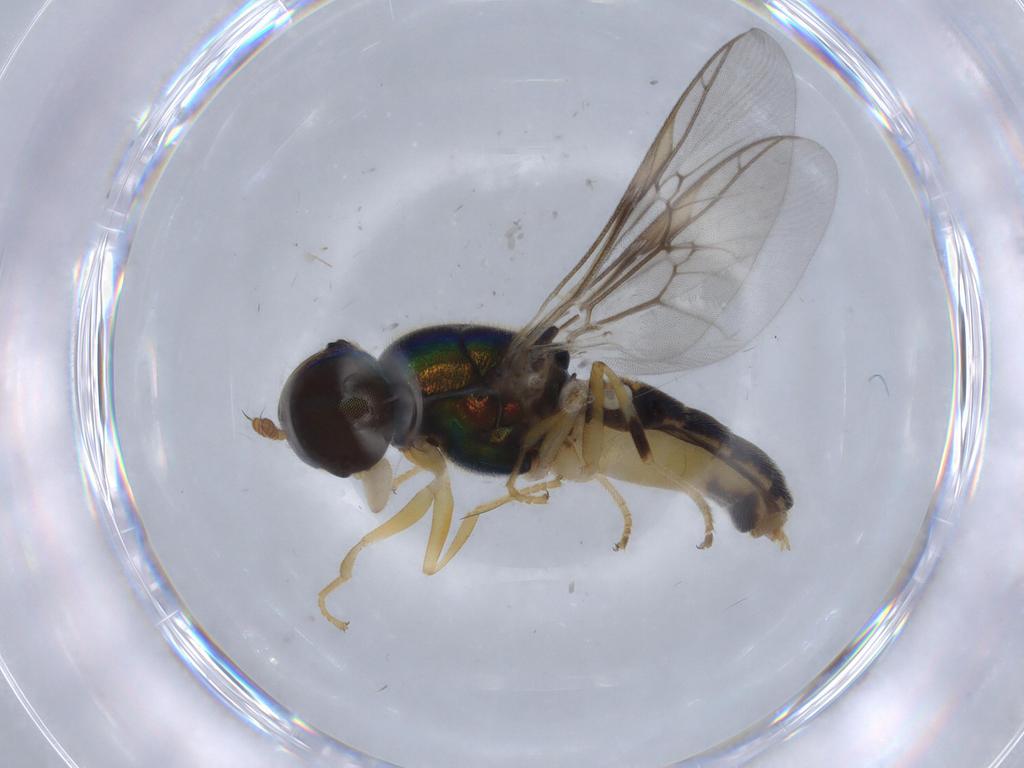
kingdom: Animalia
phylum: Arthropoda
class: Insecta
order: Diptera
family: Stratiomyidae
